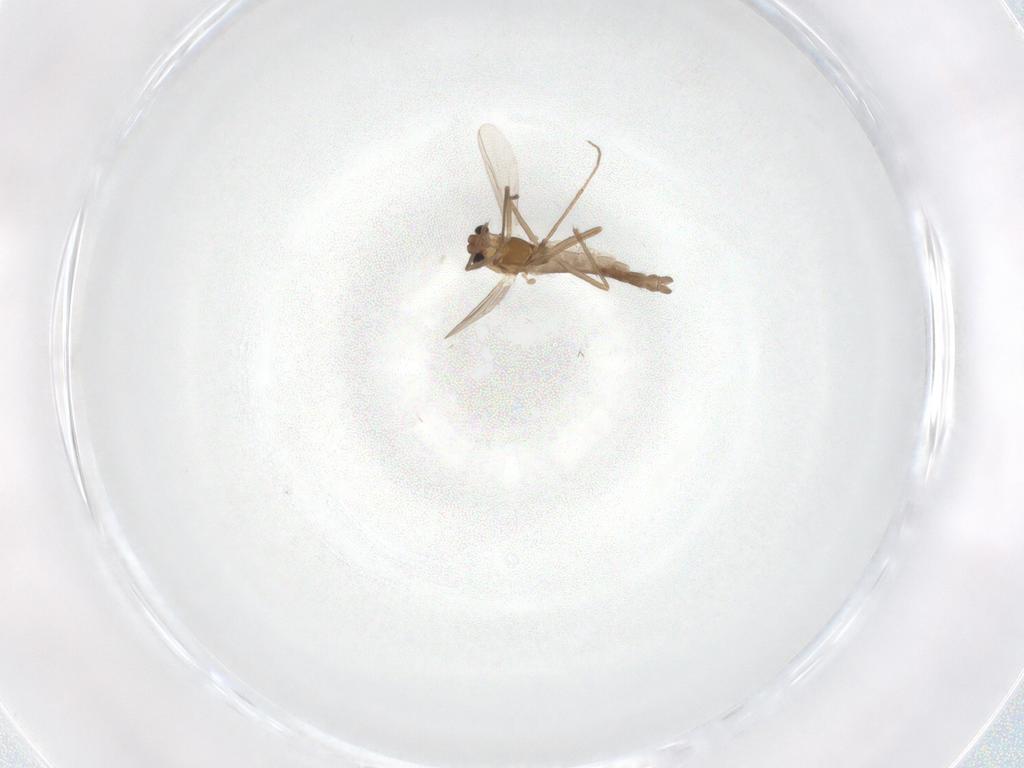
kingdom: Animalia
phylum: Arthropoda
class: Insecta
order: Diptera
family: Chironomidae
